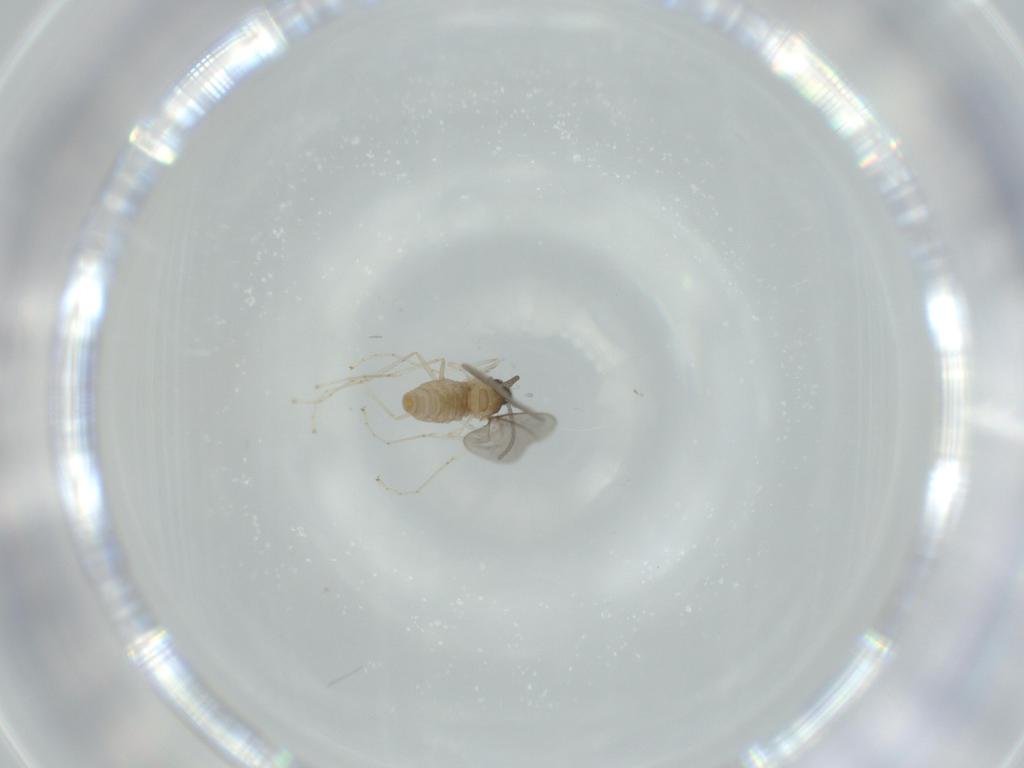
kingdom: Animalia
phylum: Arthropoda
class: Insecta
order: Diptera
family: Cecidomyiidae
